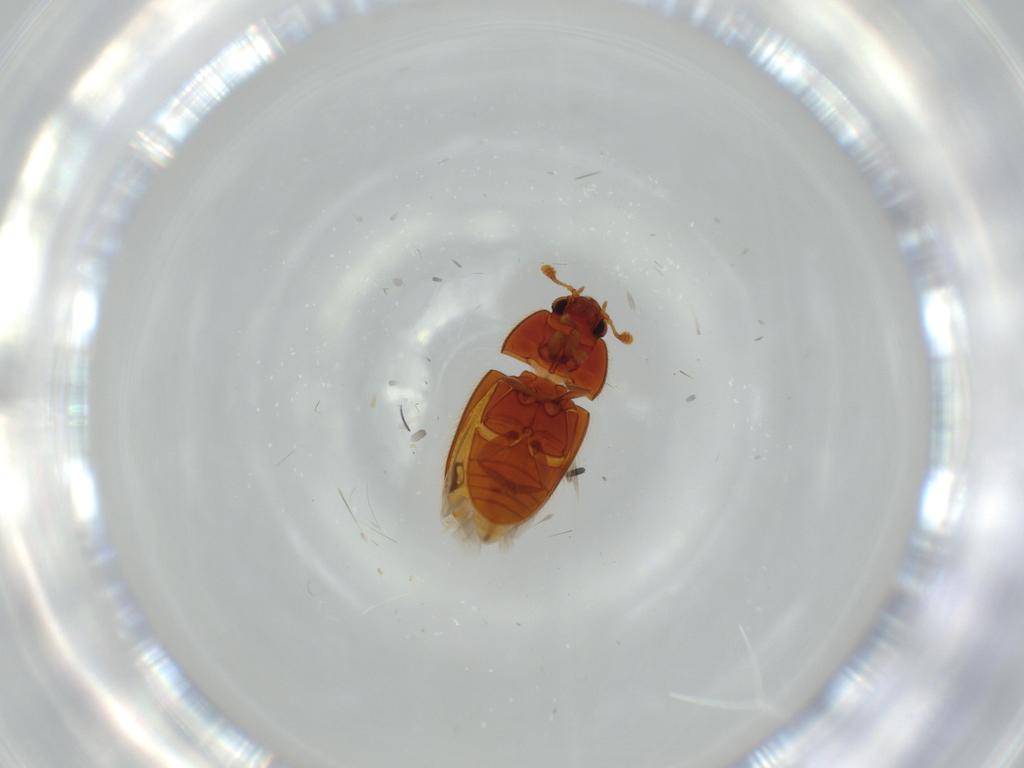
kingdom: Animalia
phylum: Arthropoda
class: Insecta
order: Coleoptera
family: Biphyllidae
